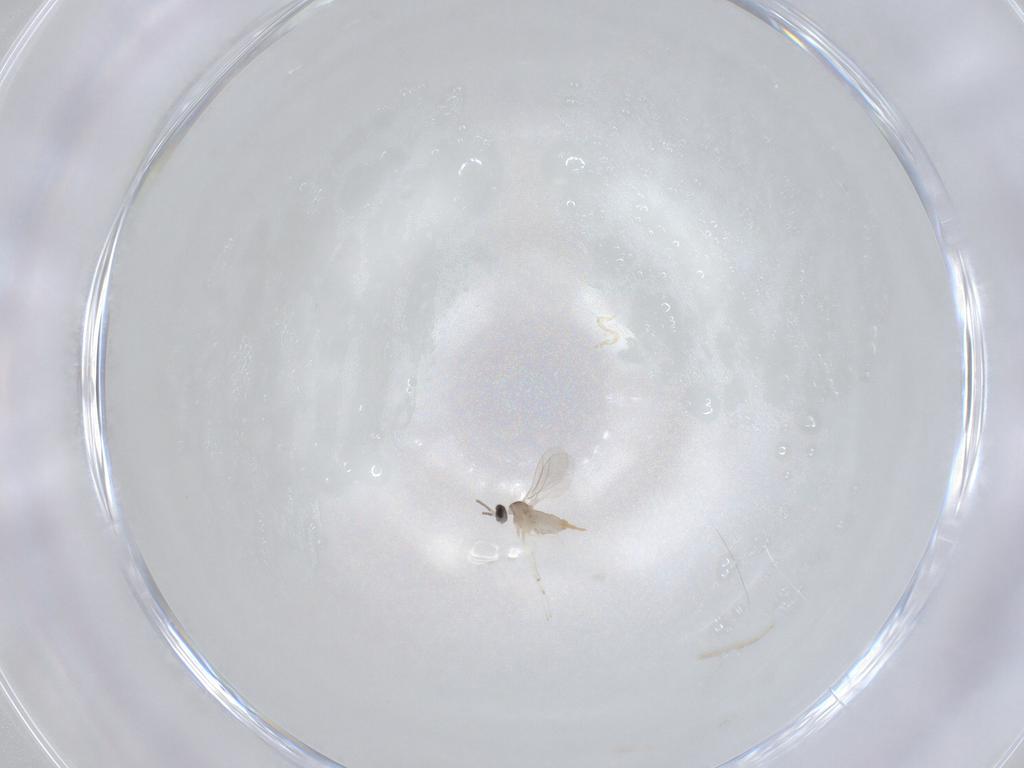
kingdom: Animalia
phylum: Arthropoda
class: Insecta
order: Diptera
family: Cecidomyiidae
